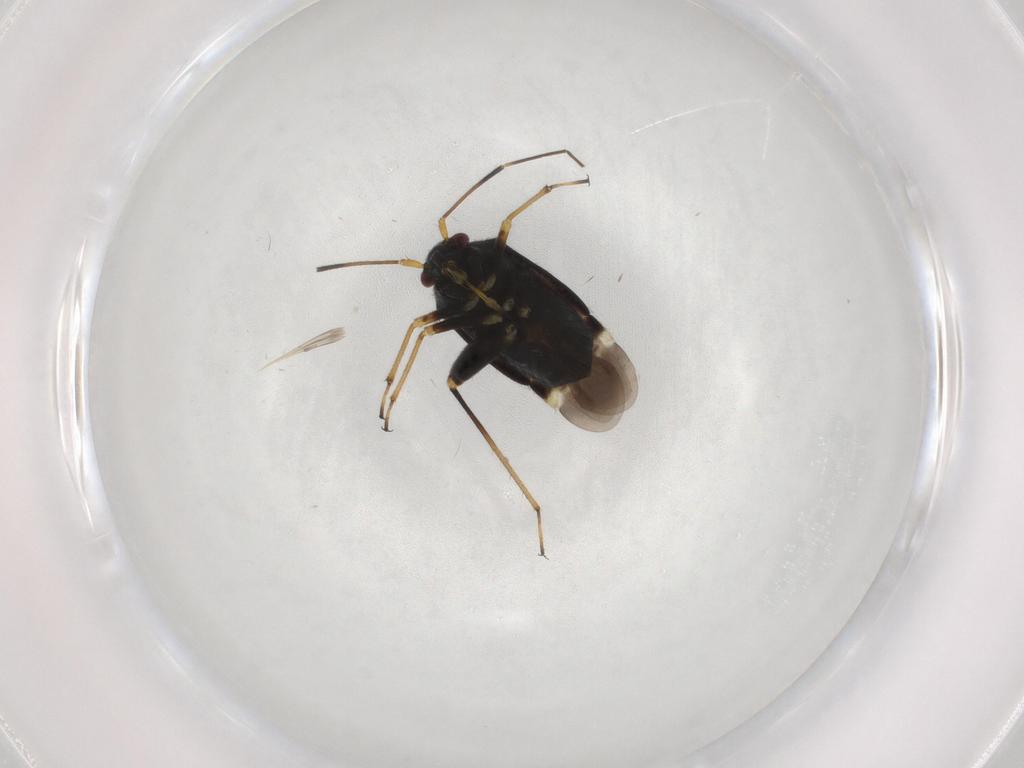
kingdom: Animalia
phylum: Arthropoda
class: Insecta
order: Hemiptera
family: Miridae
